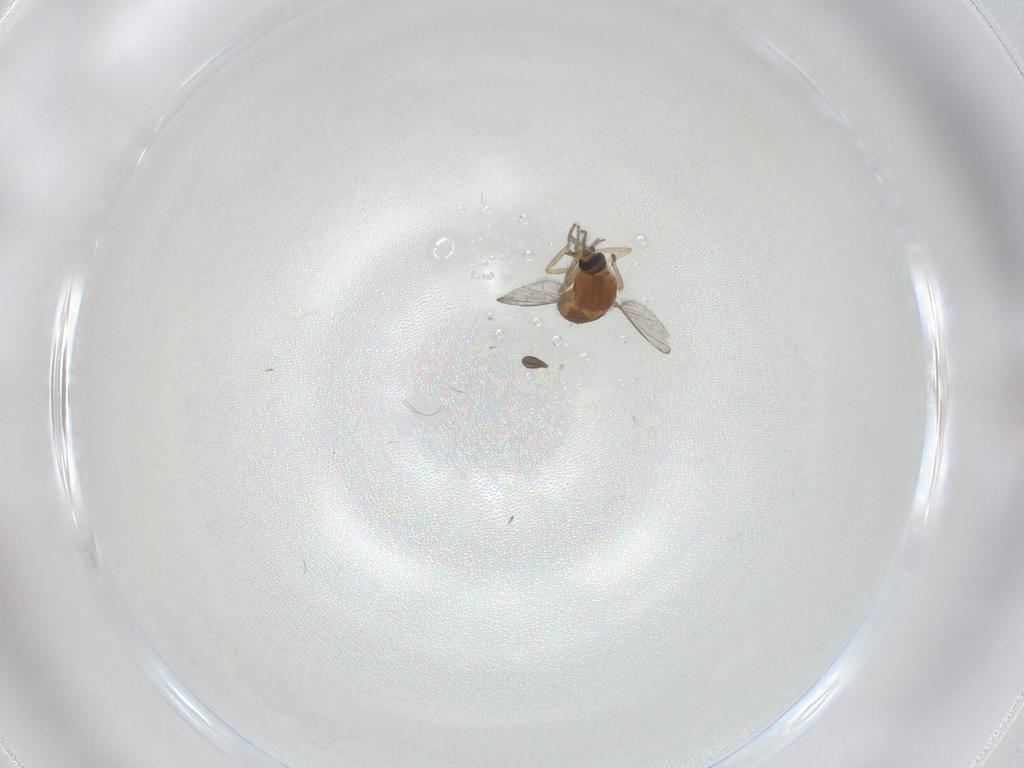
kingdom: Animalia
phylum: Arthropoda
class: Insecta
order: Diptera
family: Ceratopogonidae
